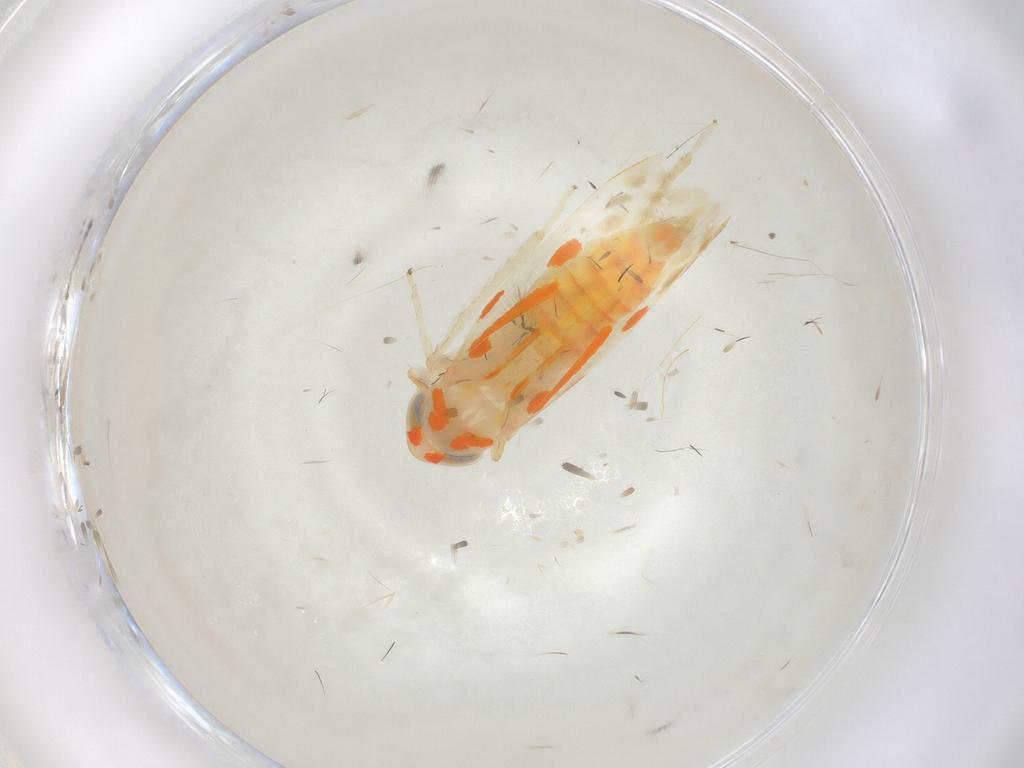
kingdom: Animalia
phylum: Arthropoda
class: Insecta
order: Hemiptera
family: Cicadellidae
